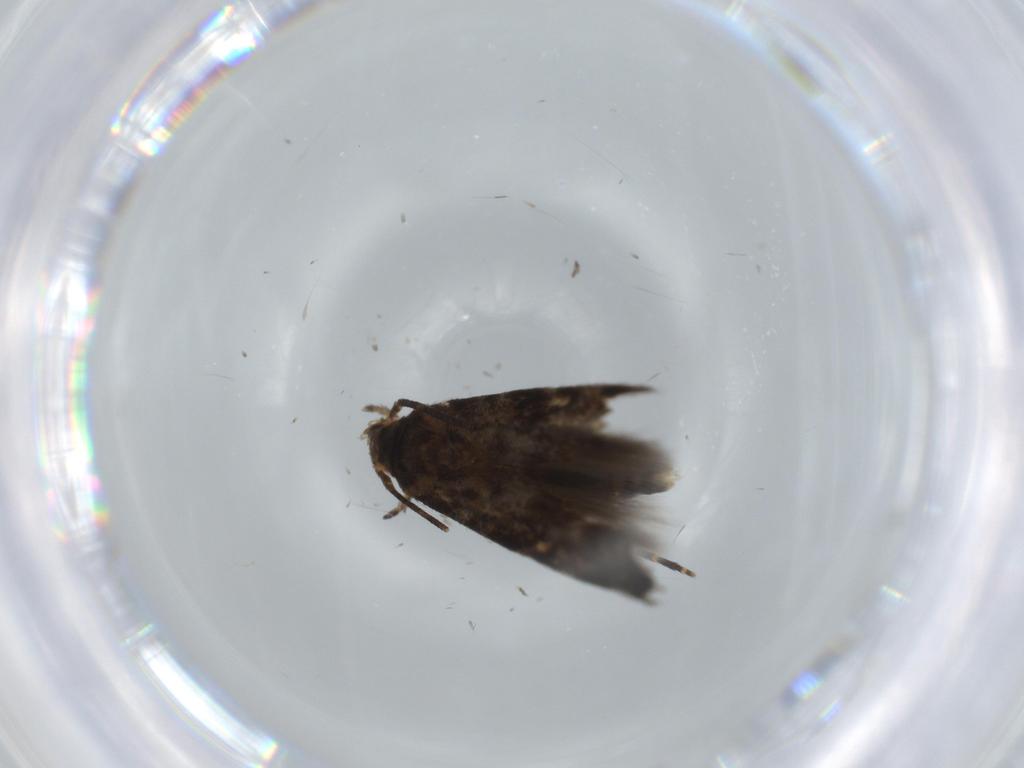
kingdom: Animalia
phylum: Arthropoda
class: Insecta
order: Lepidoptera
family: Momphidae
